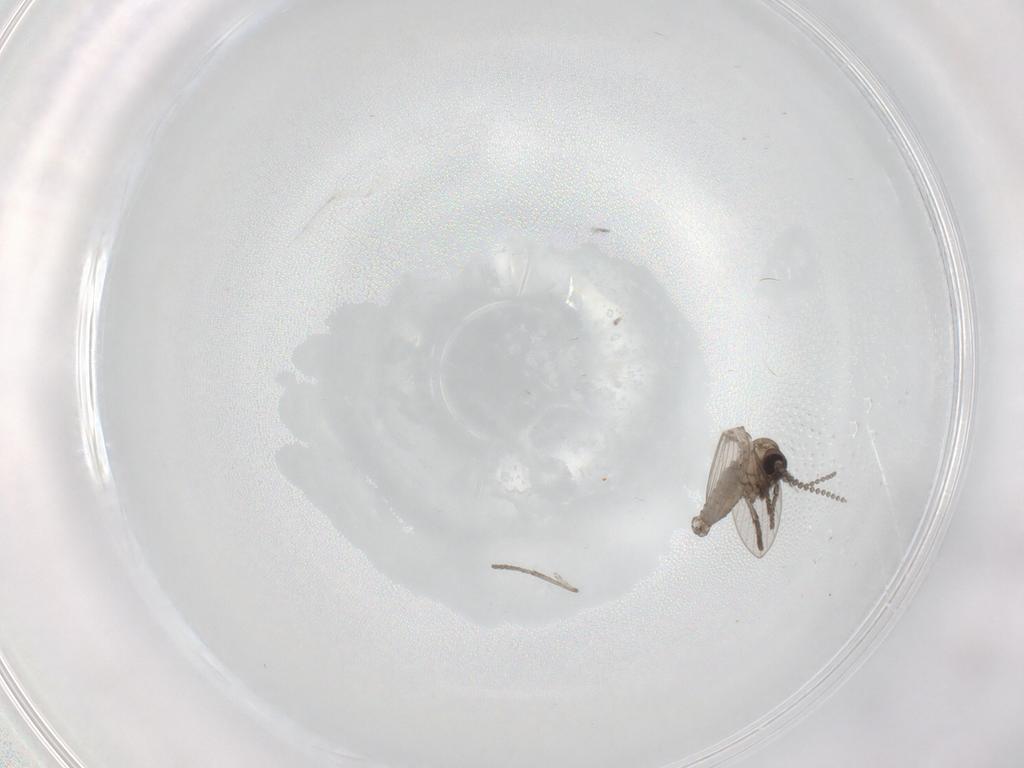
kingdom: Animalia
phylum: Arthropoda
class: Insecta
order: Diptera
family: Psychodidae
